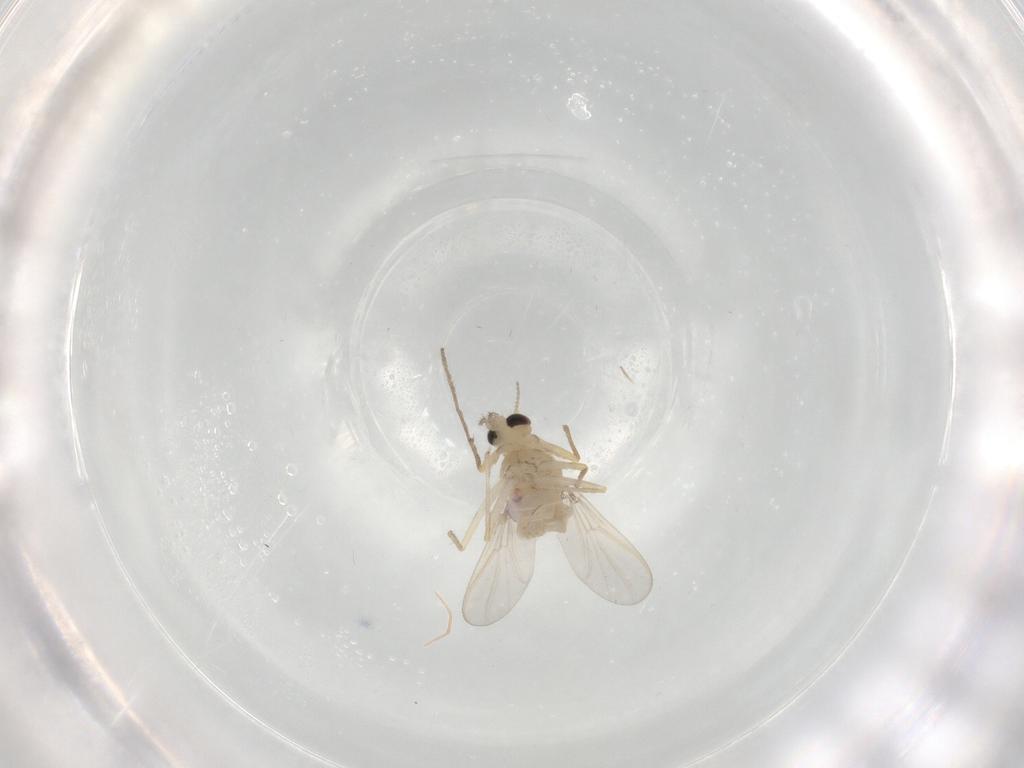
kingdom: Animalia
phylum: Arthropoda
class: Insecta
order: Diptera
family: Chironomidae
